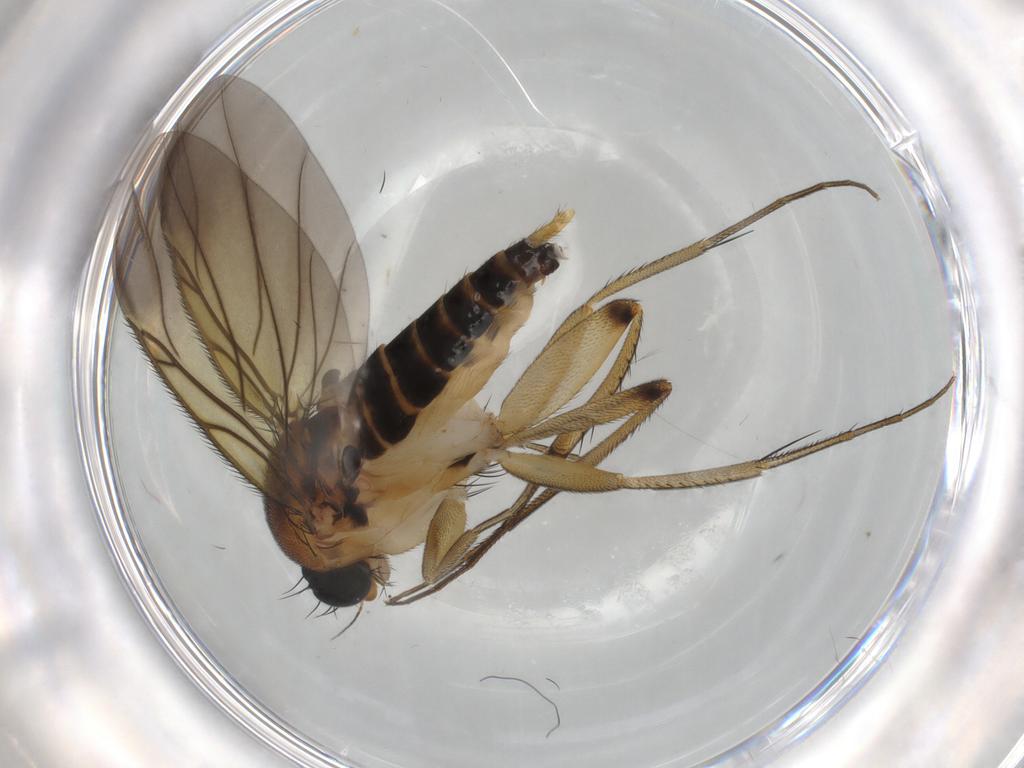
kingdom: Animalia
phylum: Arthropoda
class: Insecta
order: Diptera
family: Phoridae
